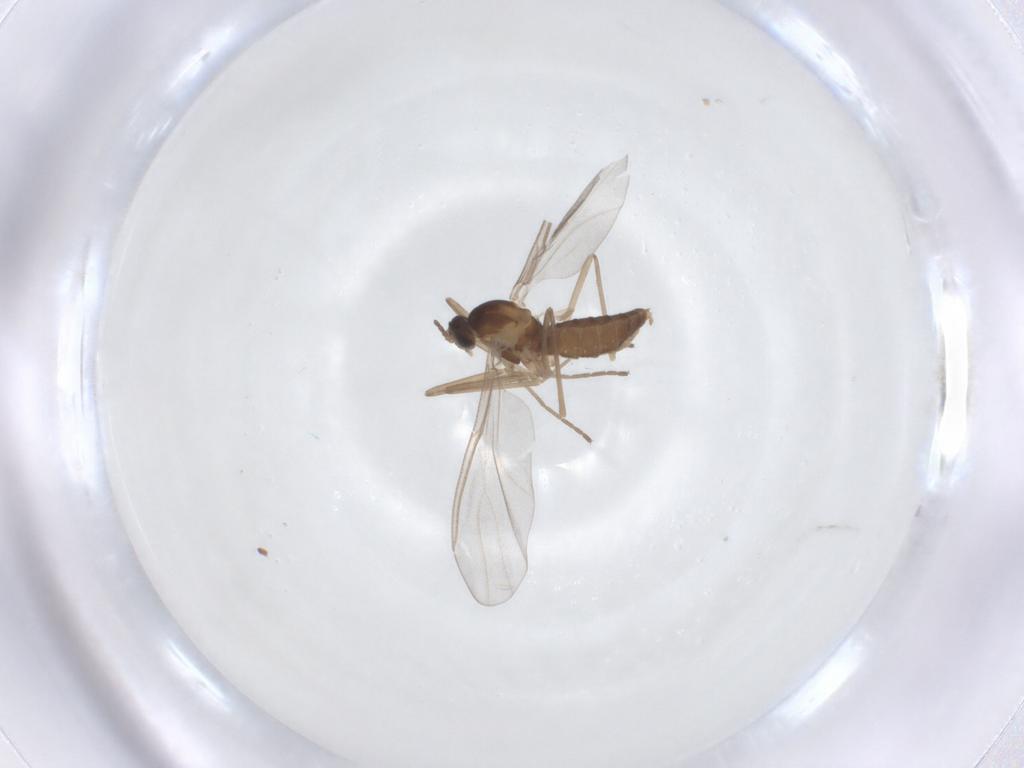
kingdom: Animalia
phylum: Arthropoda
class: Insecta
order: Diptera
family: Cecidomyiidae
